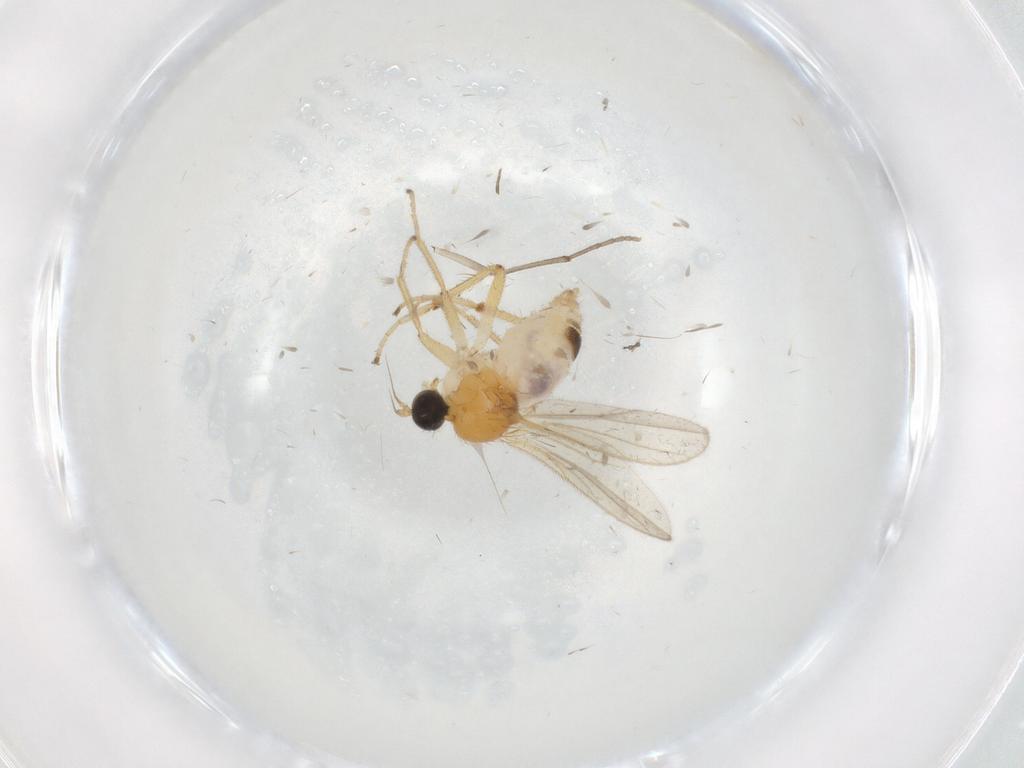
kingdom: Animalia
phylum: Arthropoda
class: Insecta
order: Diptera
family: Hybotidae
